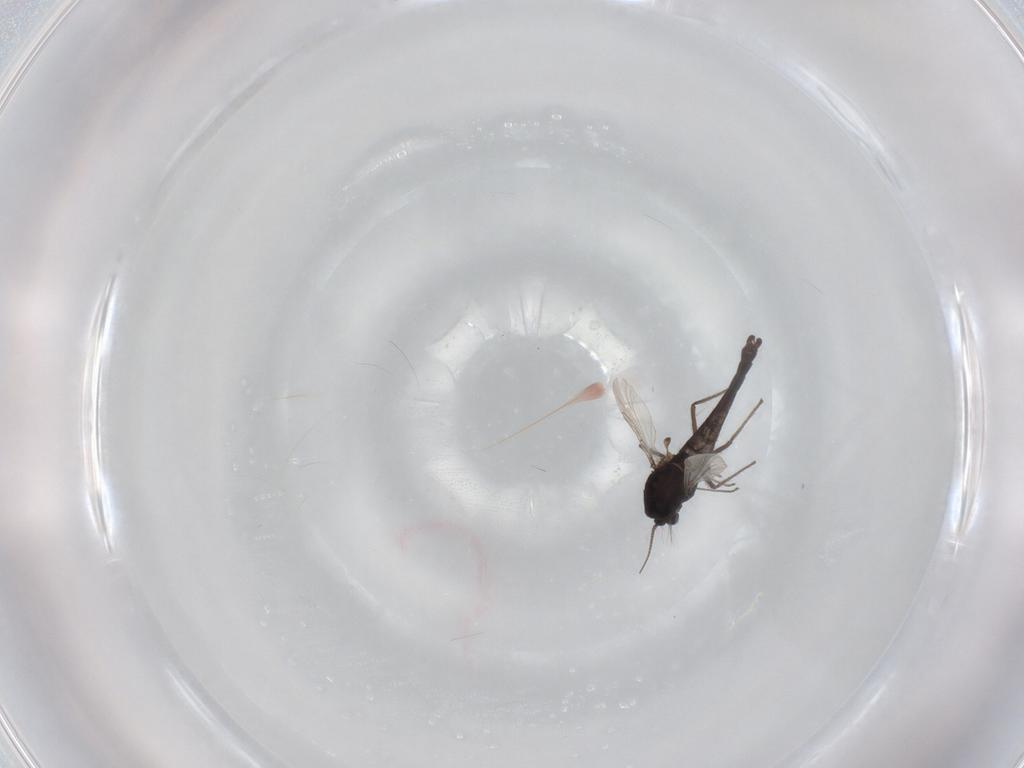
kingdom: Animalia
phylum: Arthropoda
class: Insecta
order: Diptera
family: Chironomidae
